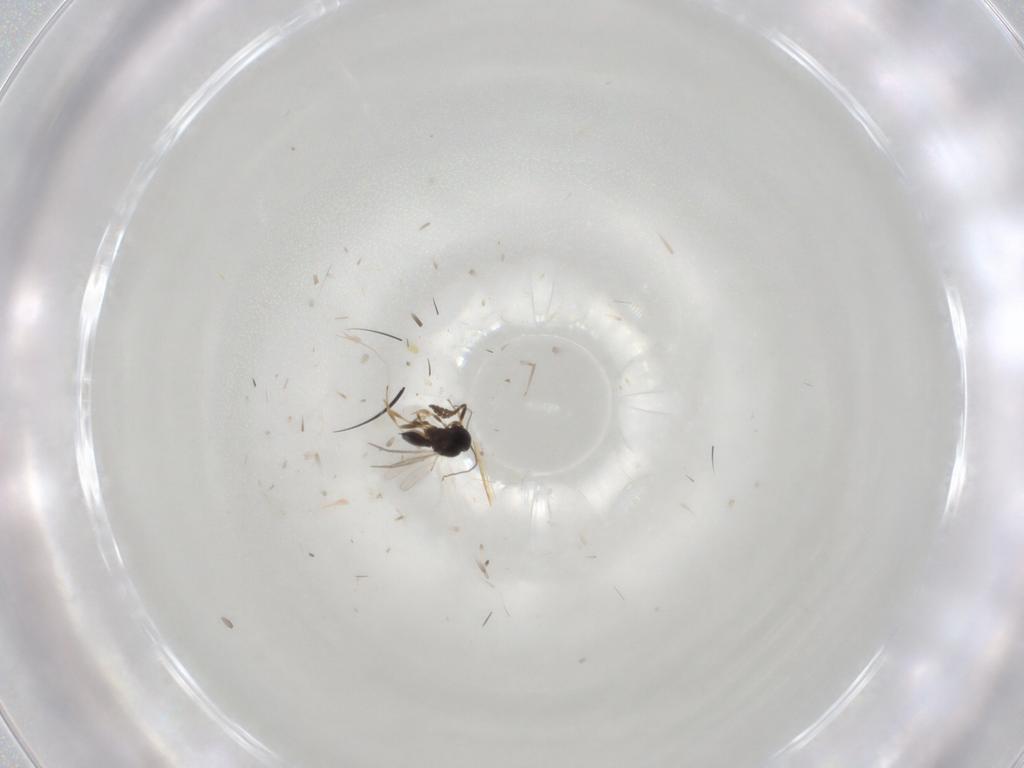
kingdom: Animalia
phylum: Arthropoda
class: Insecta
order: Hymenoptera
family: Scelionidae
